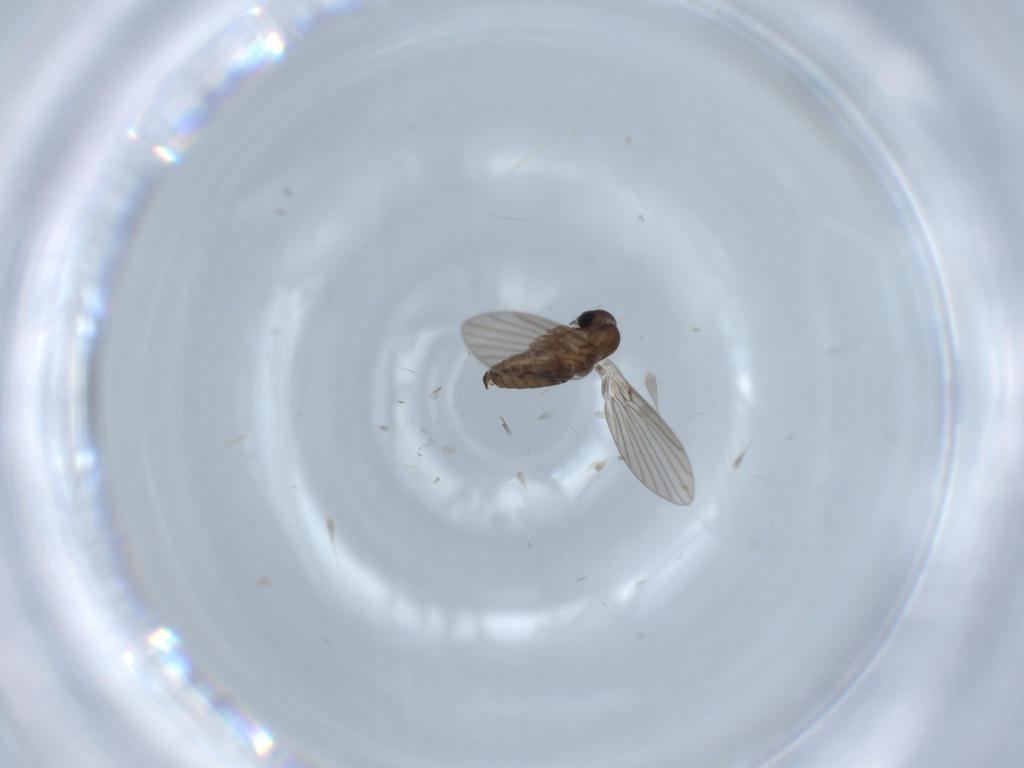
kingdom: Animalia
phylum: Arthropoda
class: Insecta
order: Diptera
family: Psychodidae
